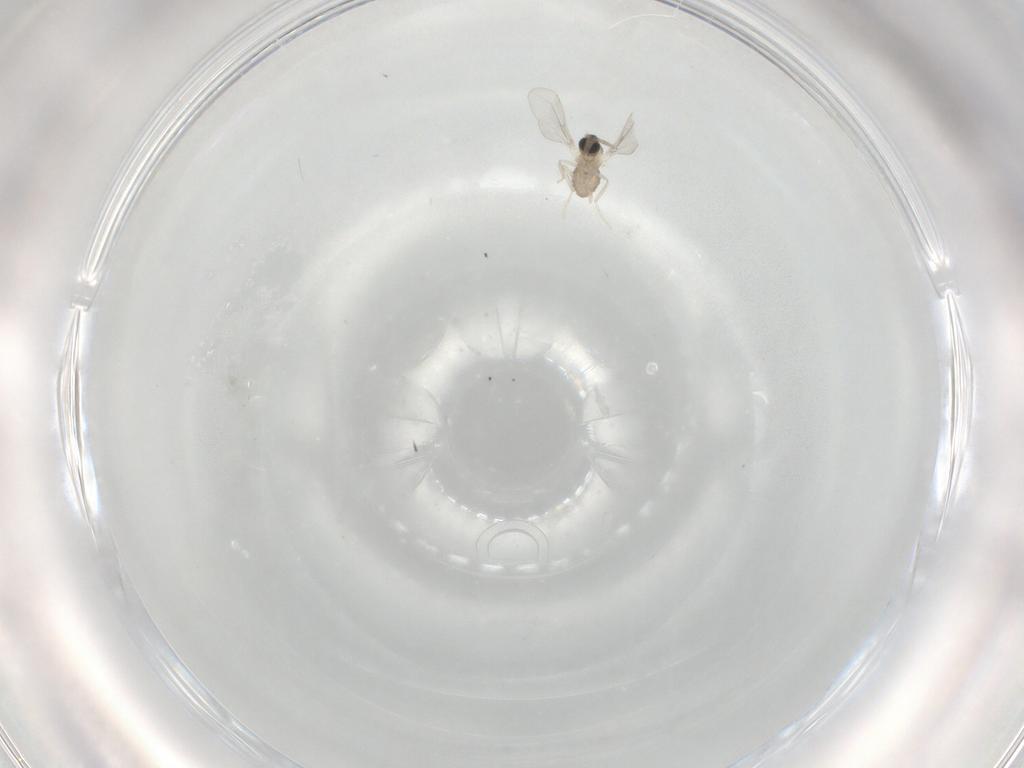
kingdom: Animalia
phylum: Arthropoda
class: Insecta
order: Diptera
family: Cecidomyiidae
